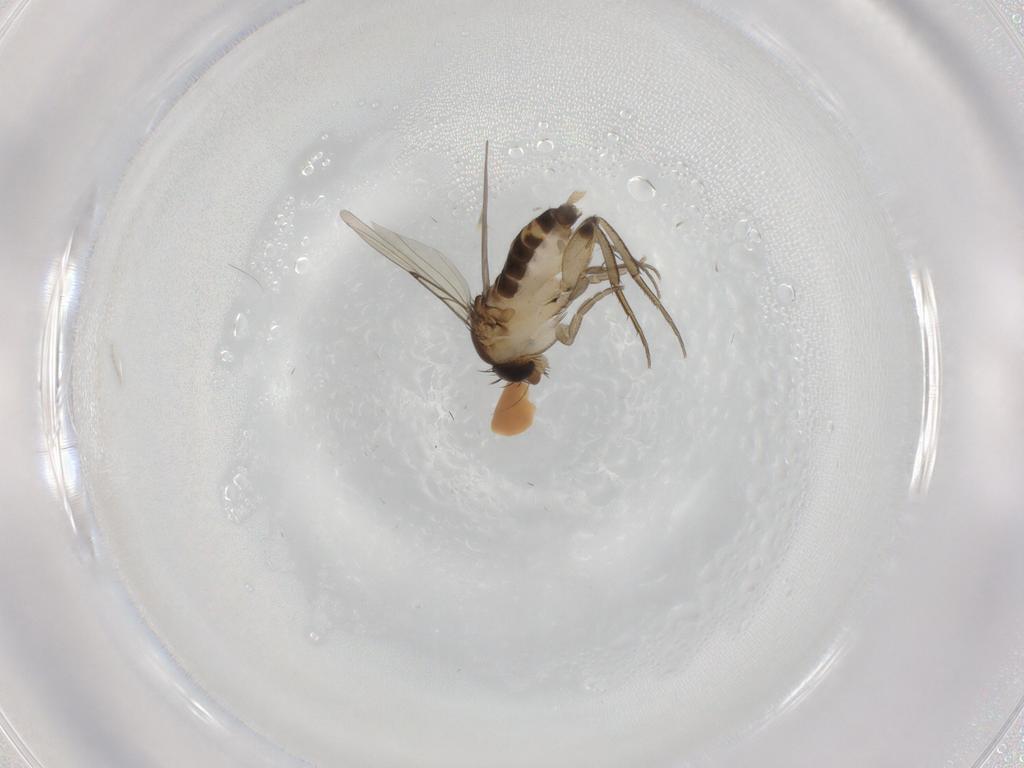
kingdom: Animalia
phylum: Arthropoda
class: Insecta
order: Diptera
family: Phoridae
